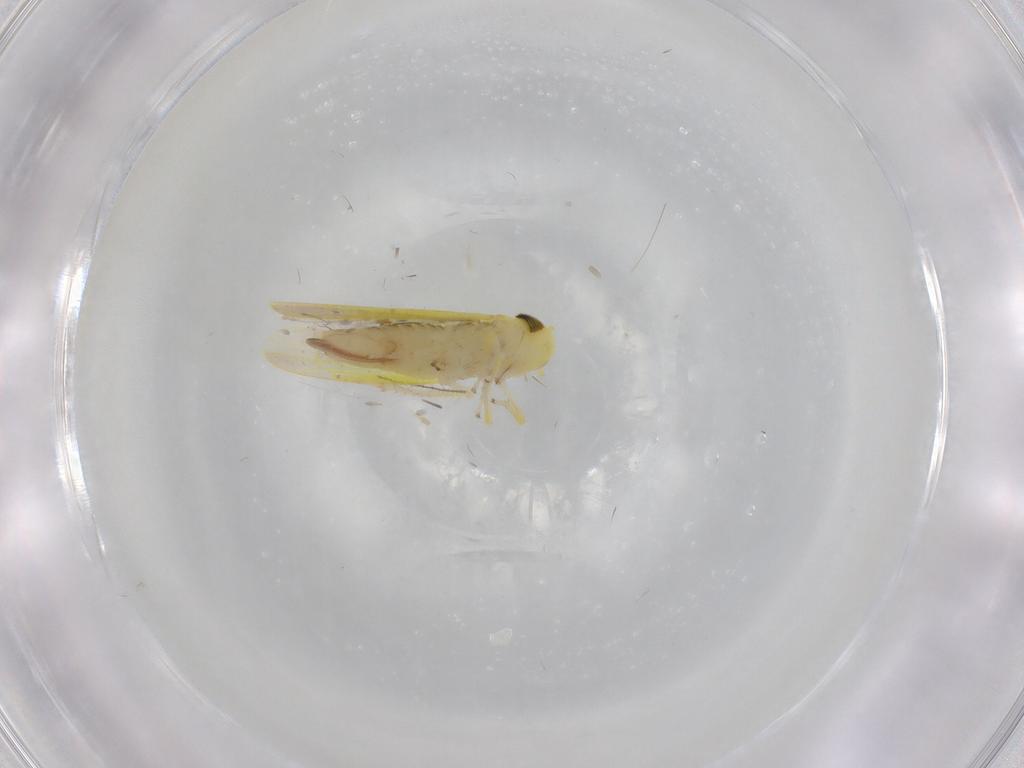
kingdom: Animalia
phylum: Arthropoda
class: Insecta
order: Hemiptera
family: Cicadellidae
